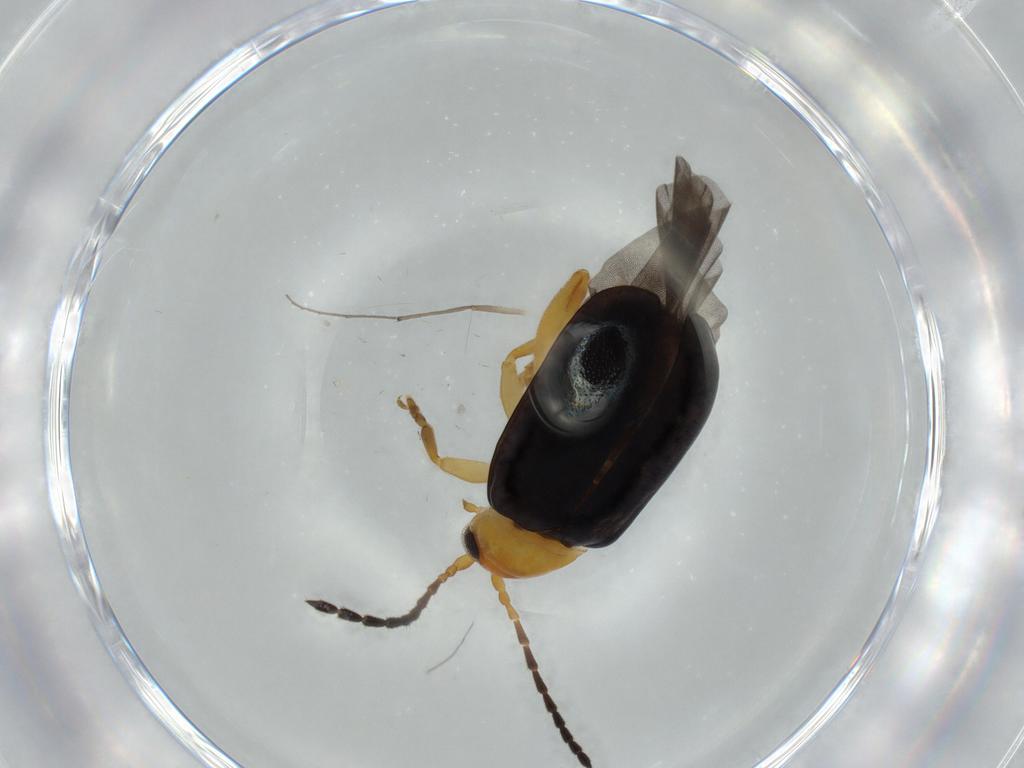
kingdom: Animalia
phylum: Arthropoda
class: Insecta
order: Coleoptera
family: Chrysomelidae
